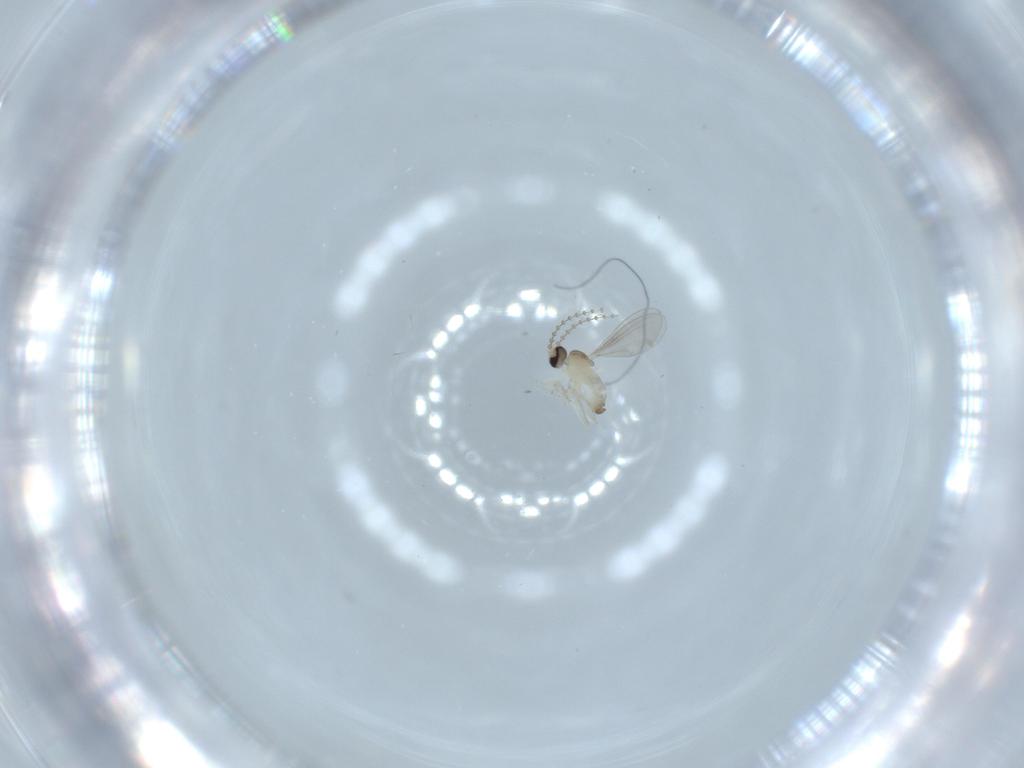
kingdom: Animalia
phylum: Arthropoda
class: Insecta
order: Diptera
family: Cecidomyiidae
